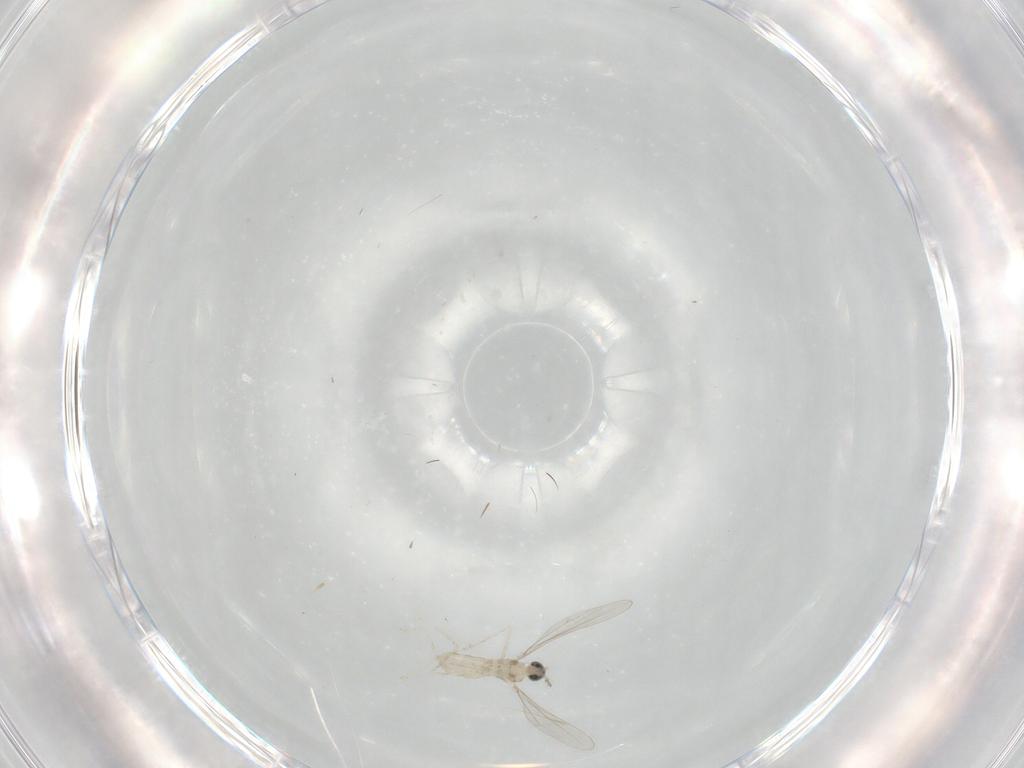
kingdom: Animalia
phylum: Arthropoda
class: Insecta
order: Diptera
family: Cecidomyiidae
